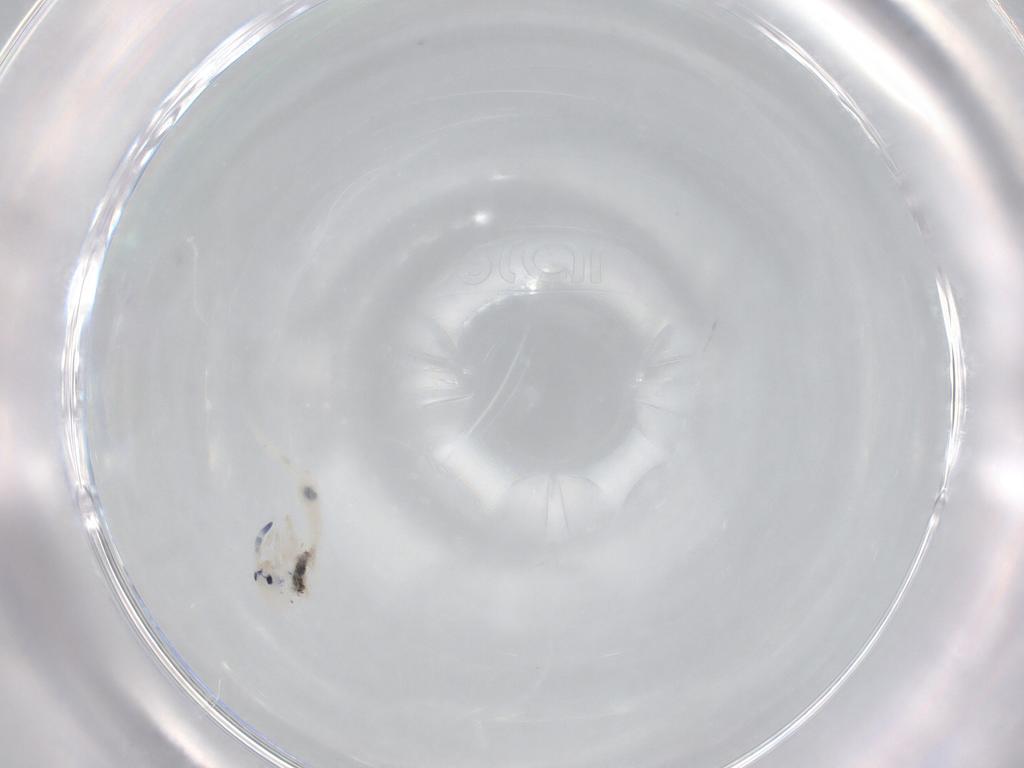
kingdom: Animalia
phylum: Arthropoda
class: Collembola
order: Entomobryomorpha
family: Entomobryidae
